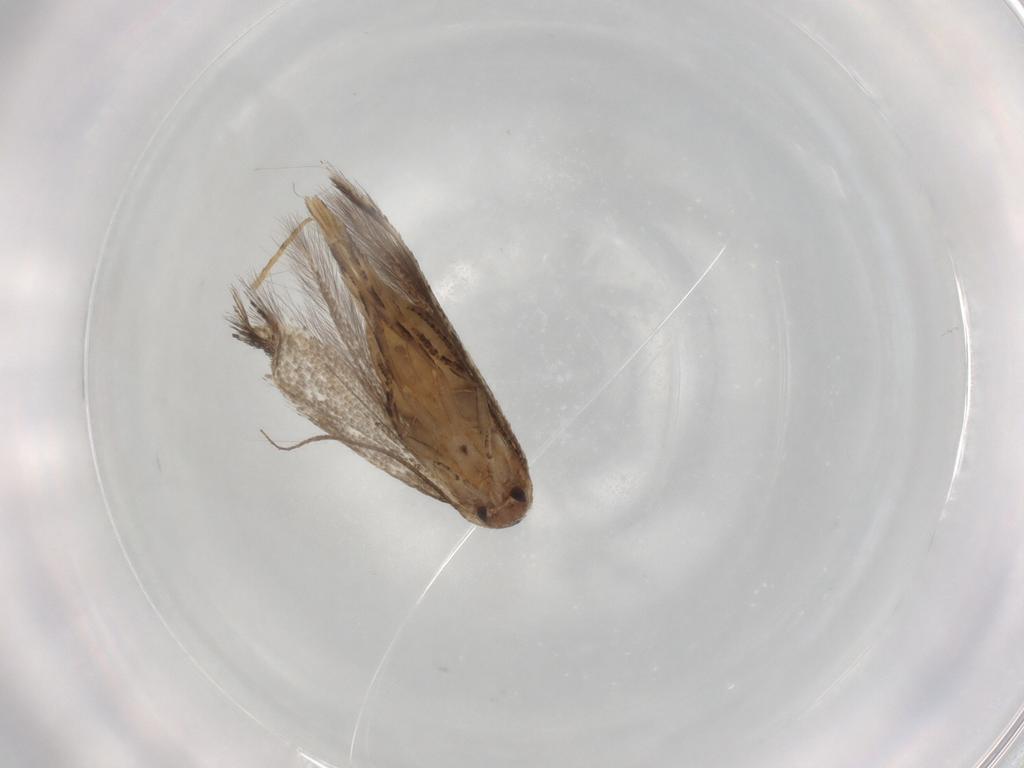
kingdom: Animalia
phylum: Arthropoda
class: Insecta
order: Lepidoptera
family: Elachistidae
